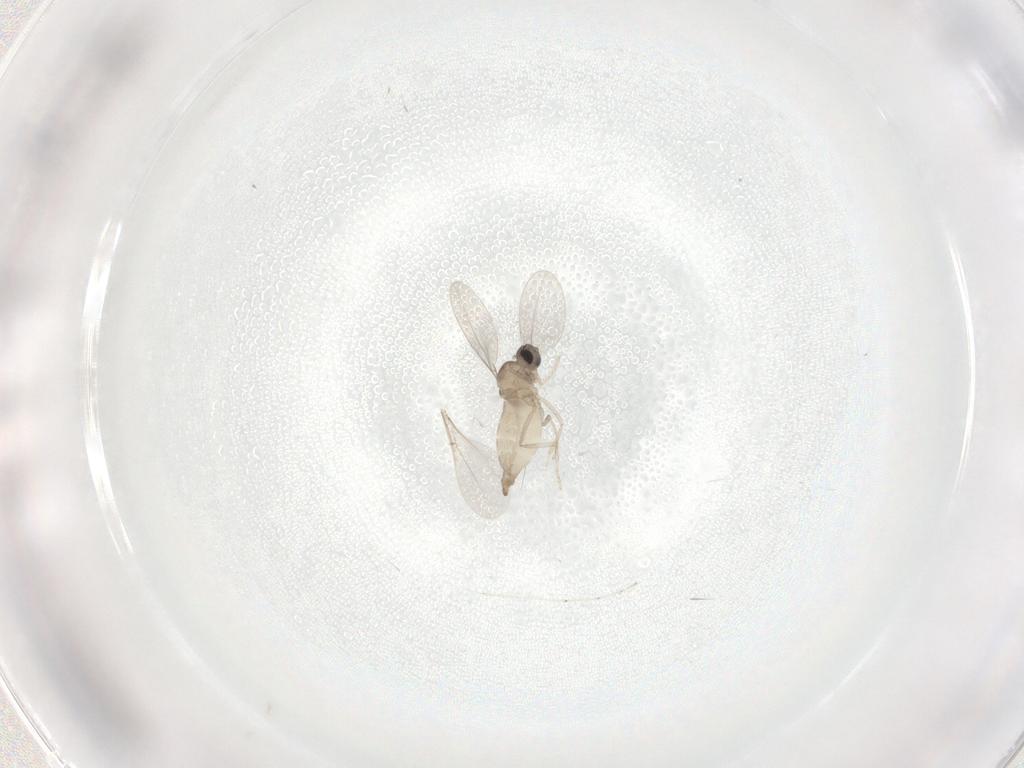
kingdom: Animalia
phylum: Arthropoda
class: Insecta
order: Diptera
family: Cecidomyiidae
